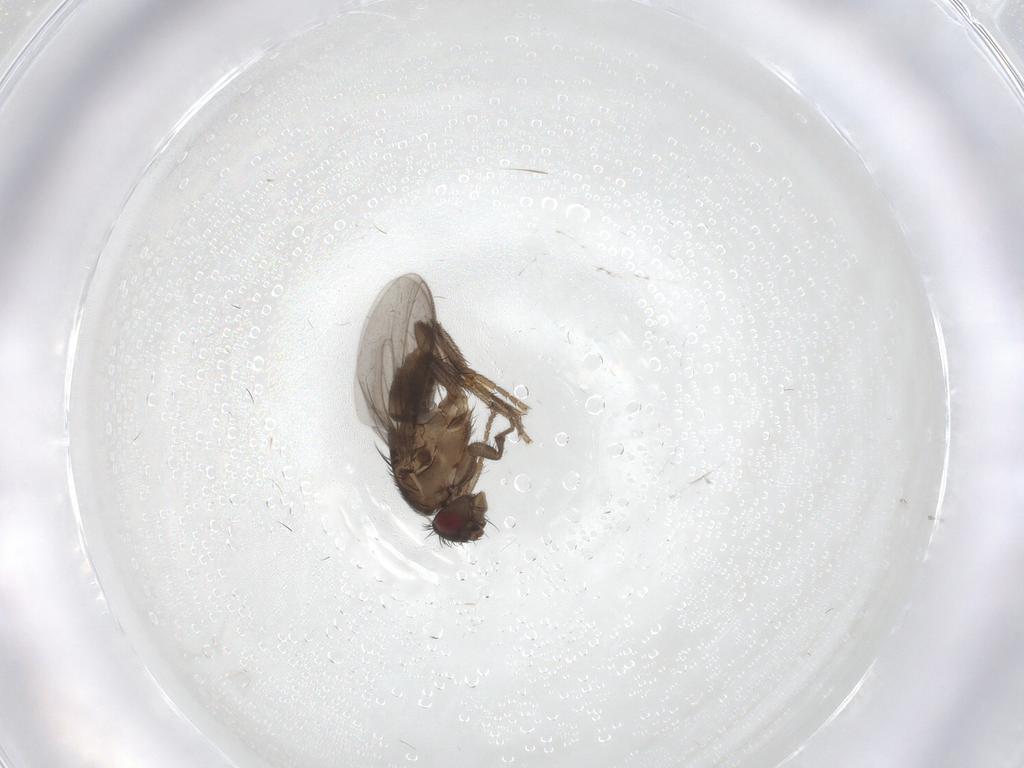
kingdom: Animalia
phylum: Arthropoda
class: Insecta
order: Diptera
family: Sphaeroceridae
